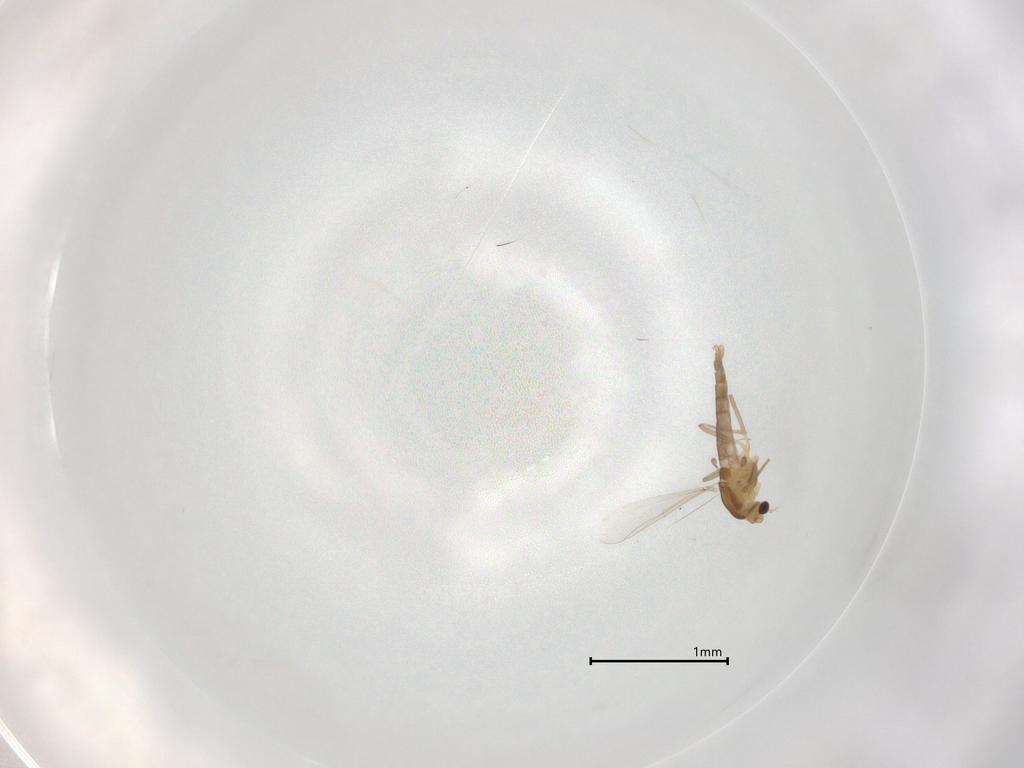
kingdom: Animalia
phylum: Arthropoda
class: Insecta
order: Diptera
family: Chironomidae
